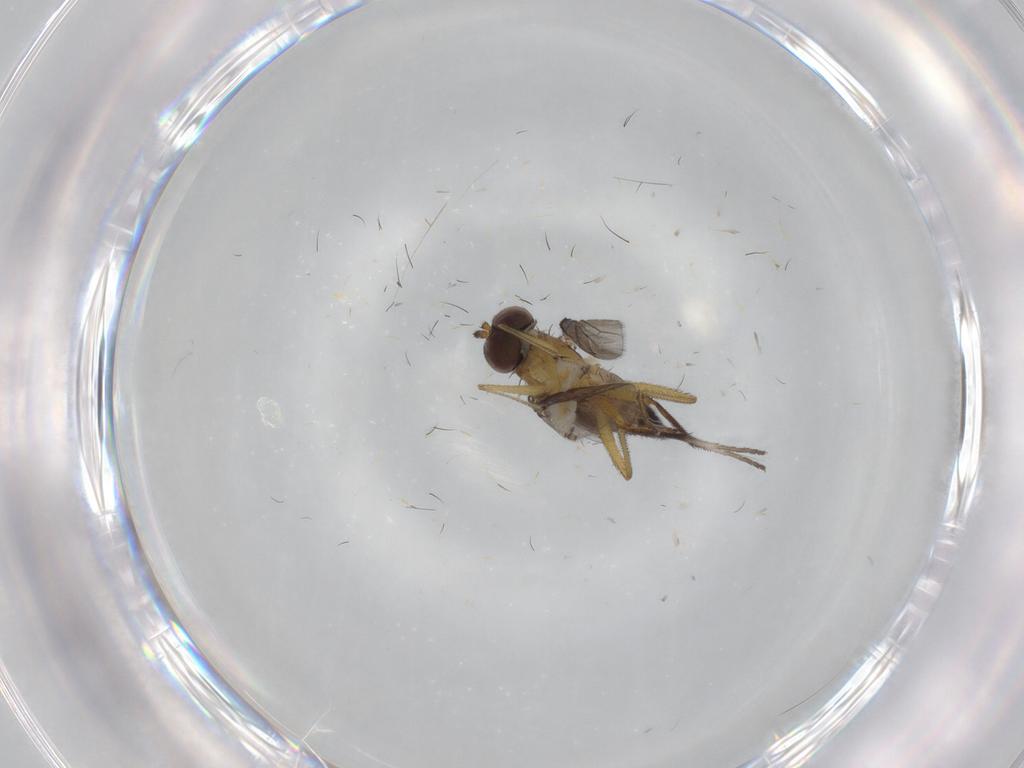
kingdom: Animalia
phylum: Arthropoda
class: Insecta
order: Diptera
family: Dolichopodidae
